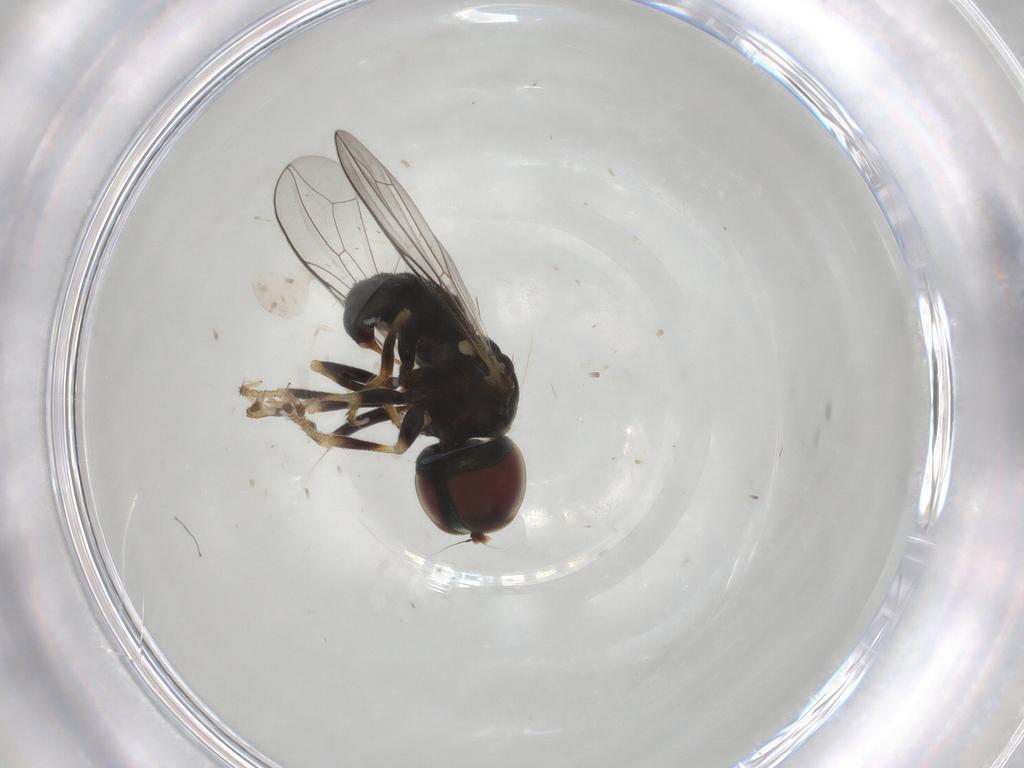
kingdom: Animalia
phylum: Arthropoda
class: Insecta
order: Diptera
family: Pipunculidae
